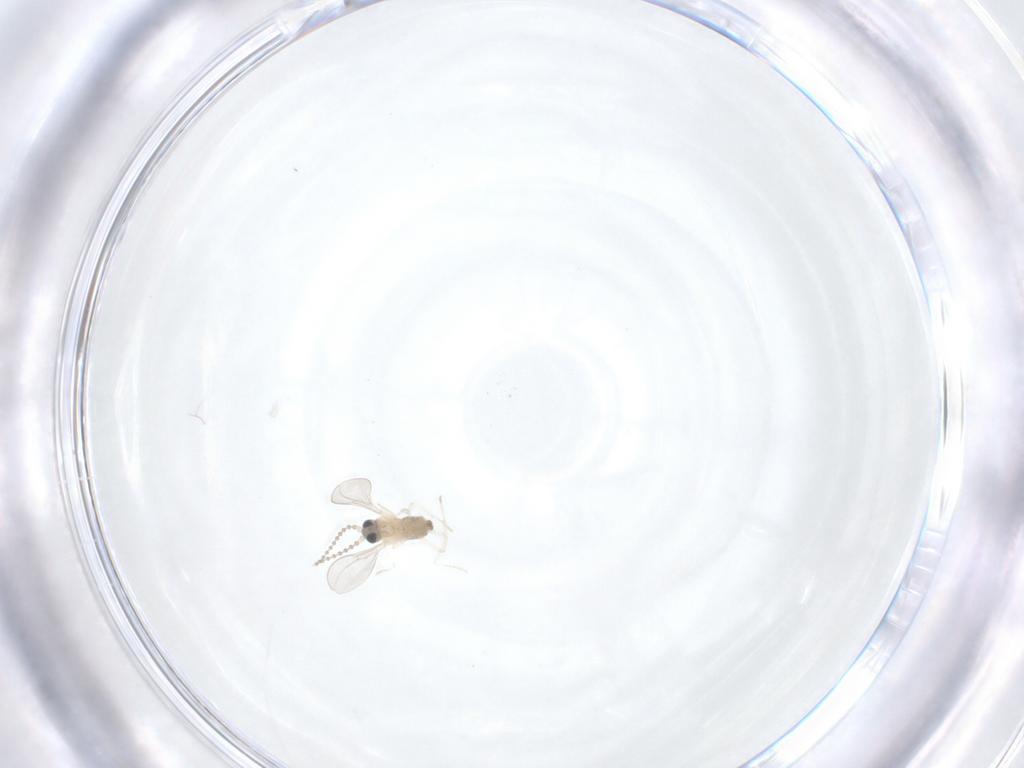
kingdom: Animalia
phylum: Arthropoda
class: Insecta
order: Diptera
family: Cecidomyiidae
